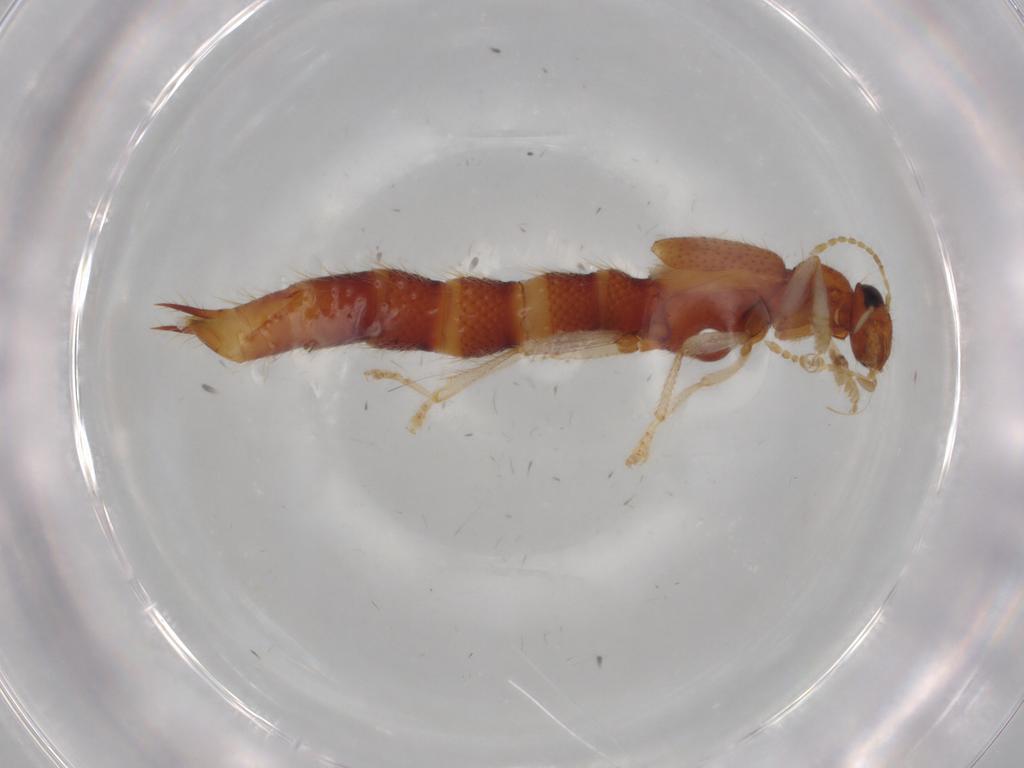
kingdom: Animalia
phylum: Arthropoda
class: Insecta
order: Coleoptera
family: Staphylinidae
